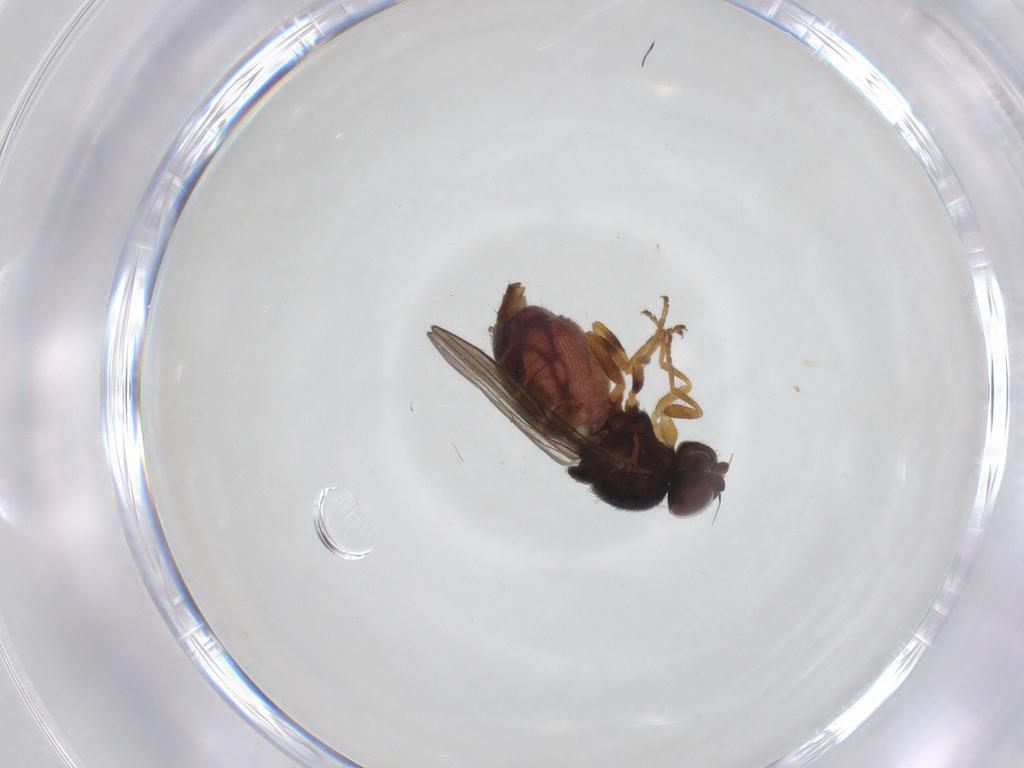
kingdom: Animalia
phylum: Arthropoda
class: Insecta
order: Diptera
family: Chloropidae
